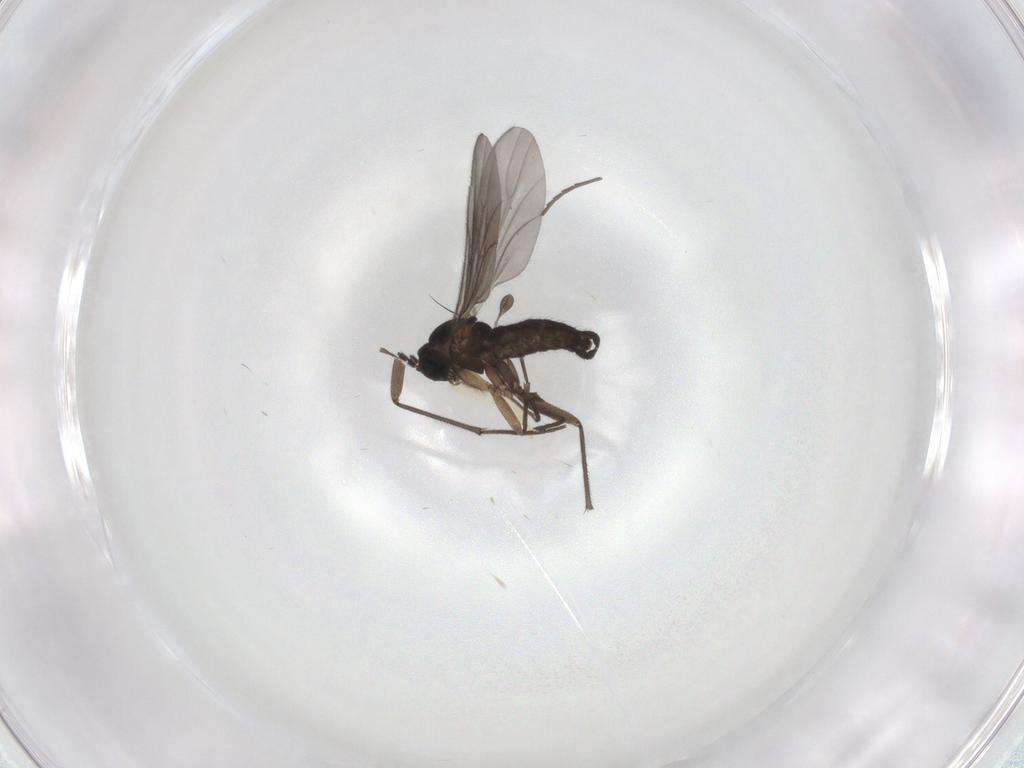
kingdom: Animalia
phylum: Arthropoda
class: Insecta
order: Diptera
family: Sciaridae
